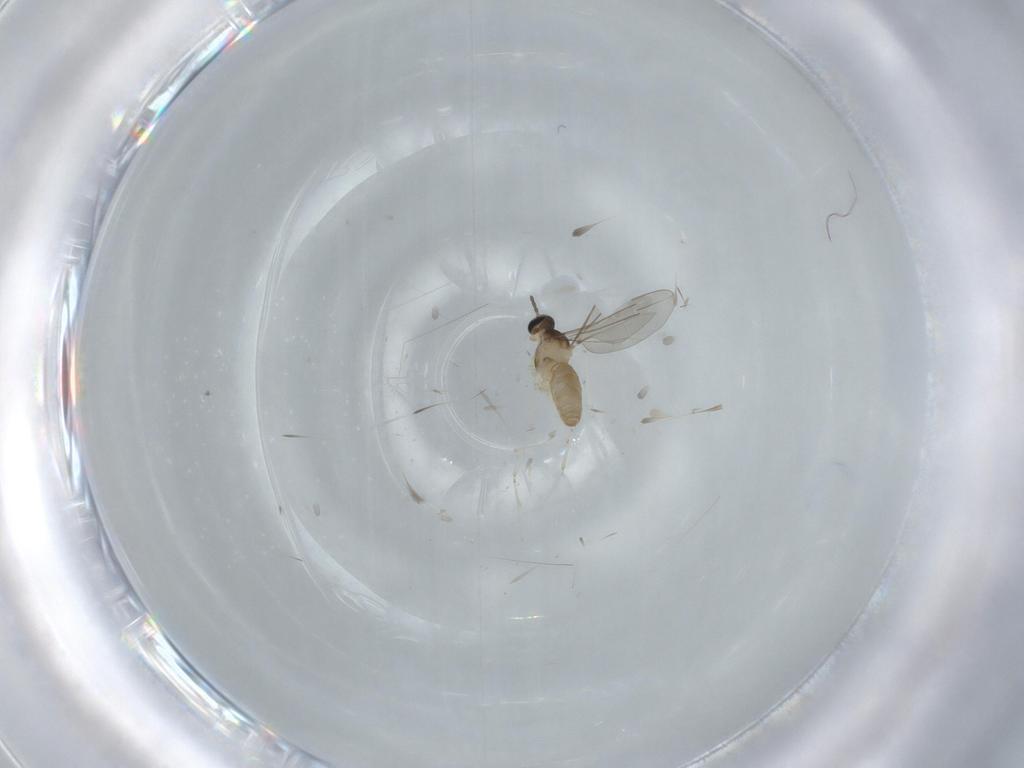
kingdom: Animalia
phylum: Arthropoda
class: Insecta
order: Diptera
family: Cecidomyiidae
